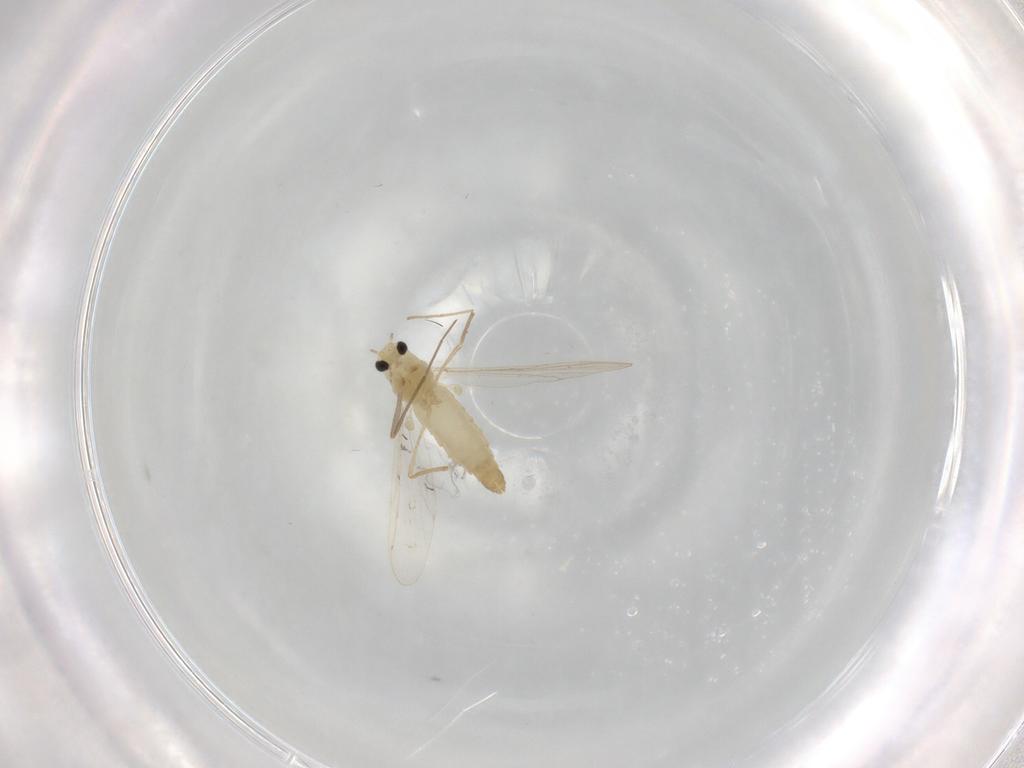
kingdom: Animalia
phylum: Arthropoda
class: Insecta
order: Diptera
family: Chironomidae
